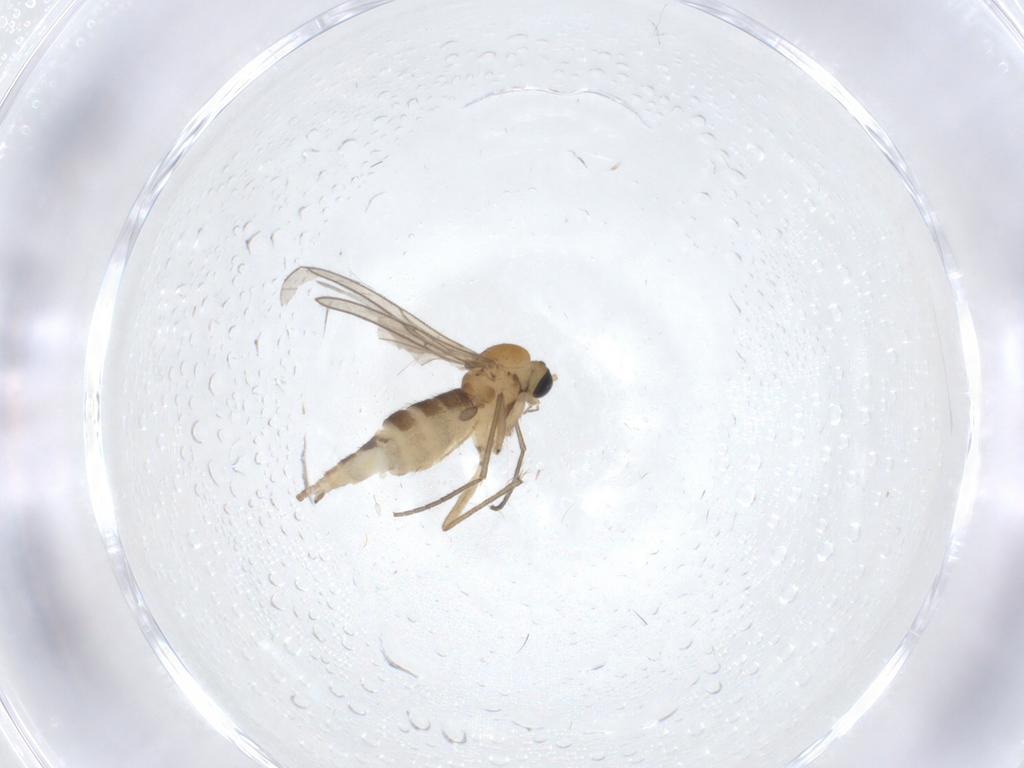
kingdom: Animalia
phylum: Arthropoda
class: Insecta
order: Diptera
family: Sciaridae
